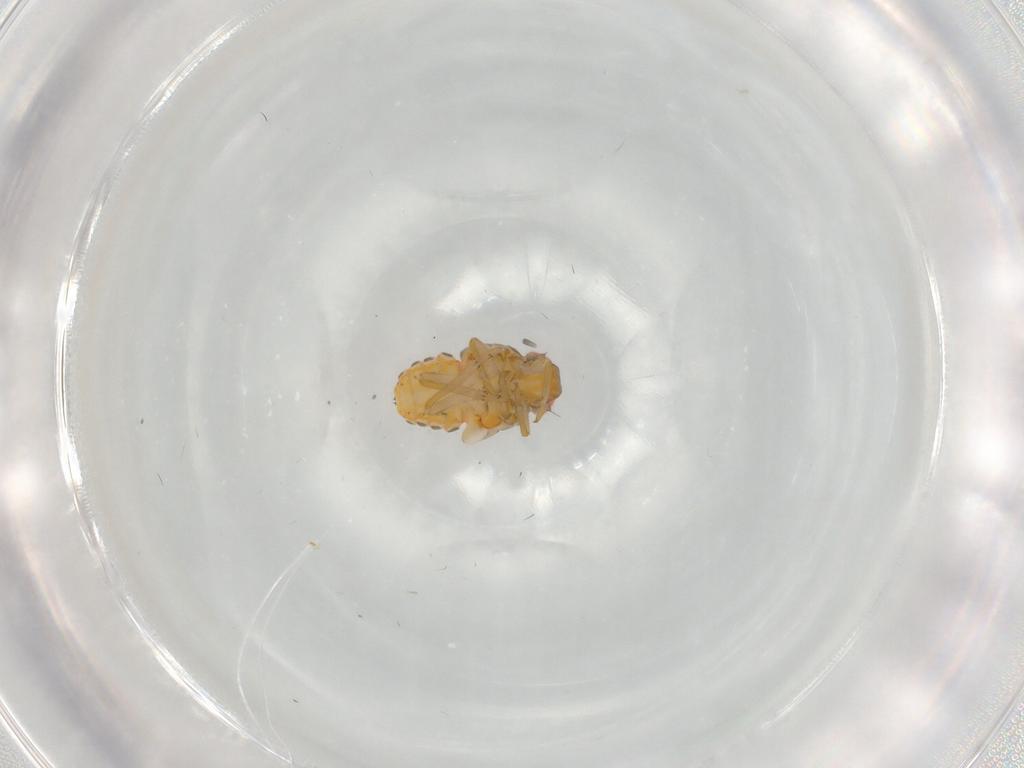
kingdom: Animalia
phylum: Arthropoda
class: Insecta
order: Hemiptera
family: Issidae
